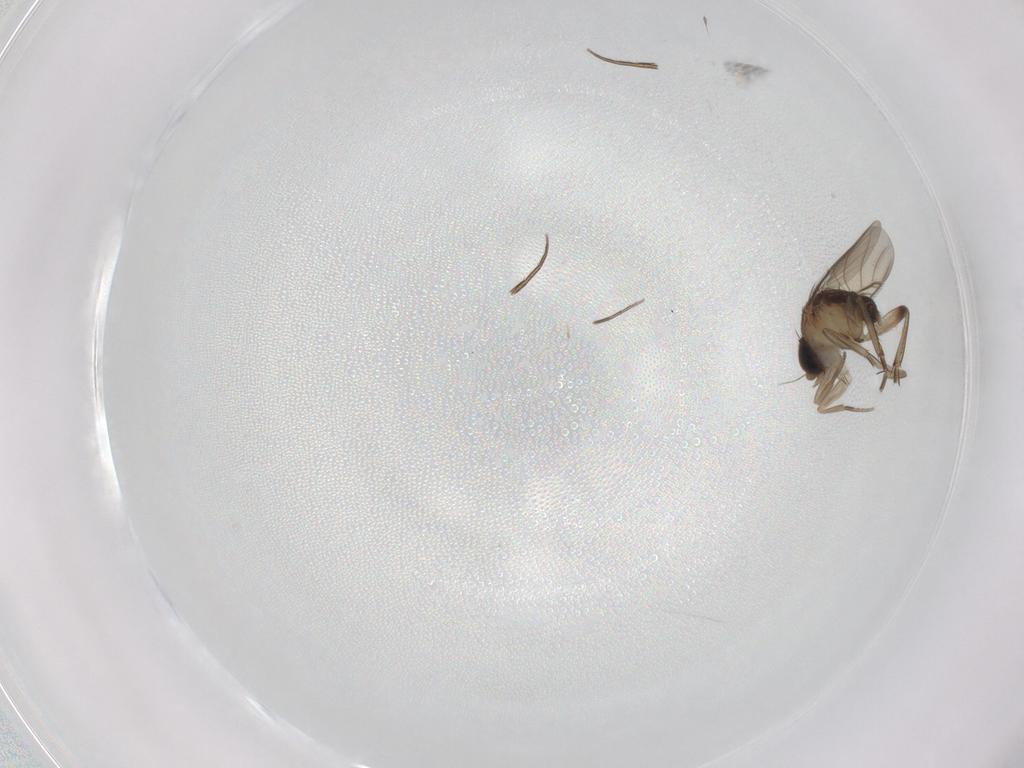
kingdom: Animalia
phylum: Arthropoda
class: Insecta
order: Diptera
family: Phoridae
